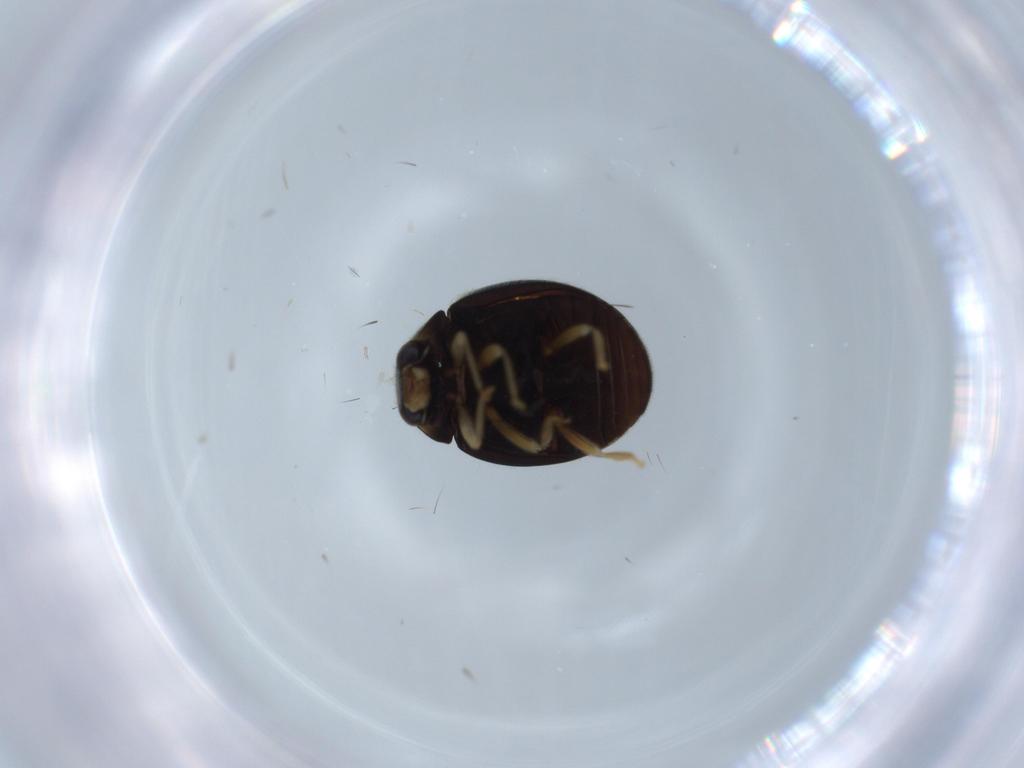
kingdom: Animalia
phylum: Arthropoda
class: Insecta
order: Coleoptera
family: Coccinellidae
